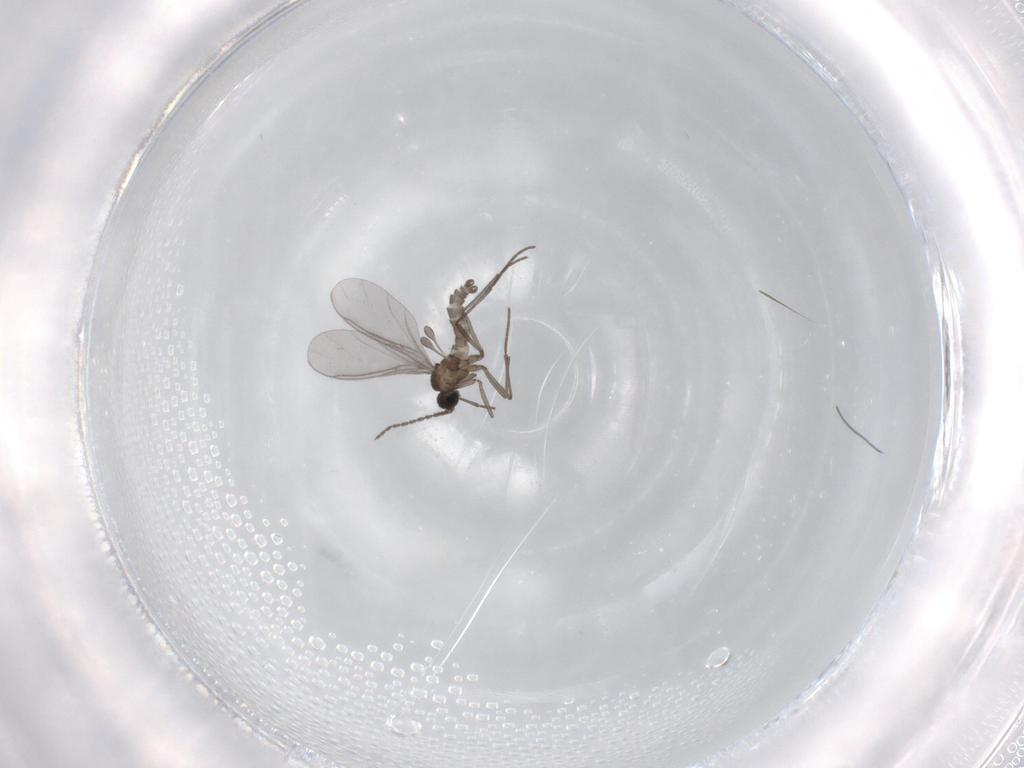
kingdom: Animalia
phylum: Arthropoda
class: Insecta
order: Diptera
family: Sciaridae
